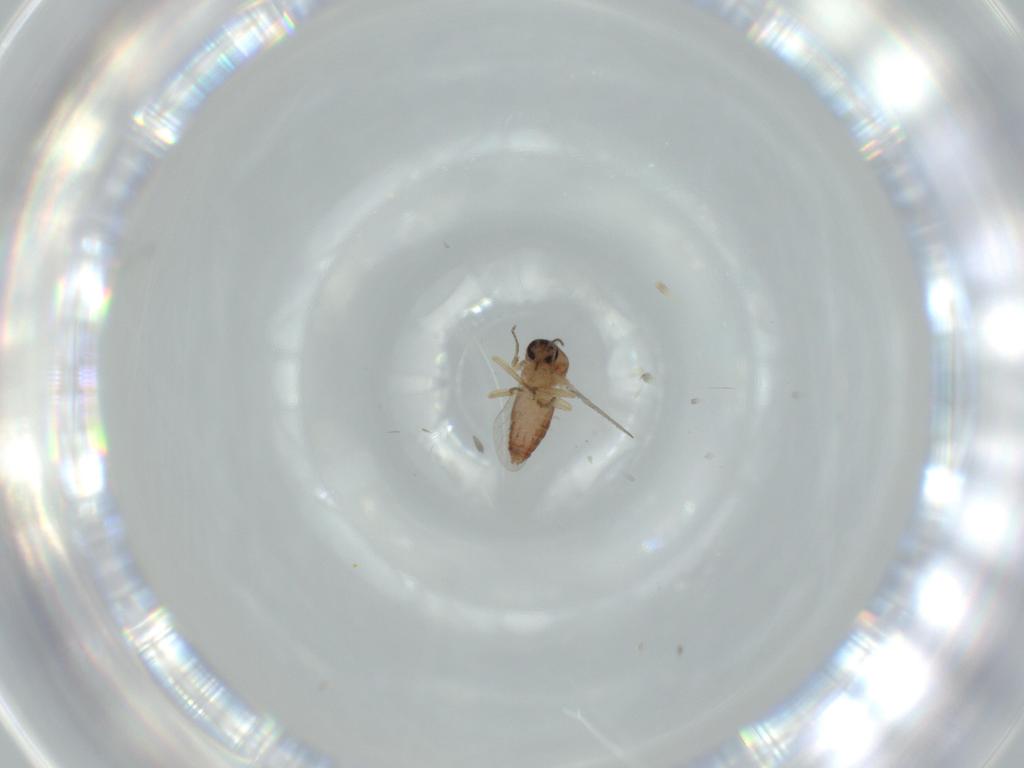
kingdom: Animalia
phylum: Arthropoda
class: Insecta
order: Diptera
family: Ceratopogonidae
